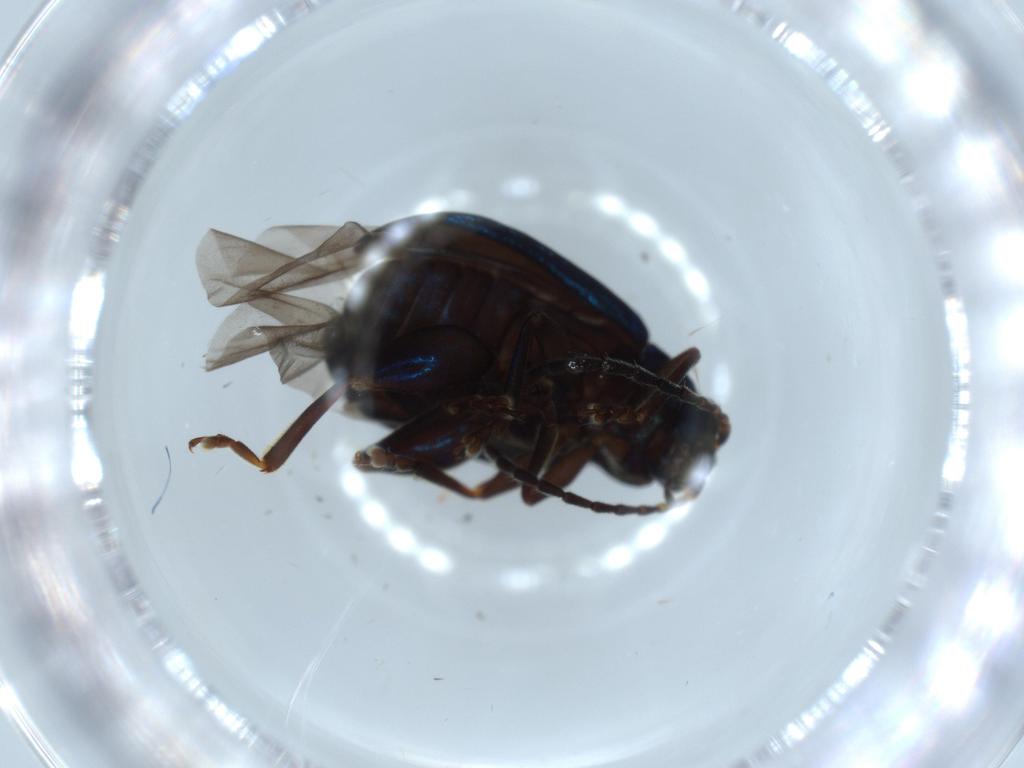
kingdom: Animalia
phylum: Arthropoda
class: Insecta
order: Coleoptera
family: Chrysomelidae
